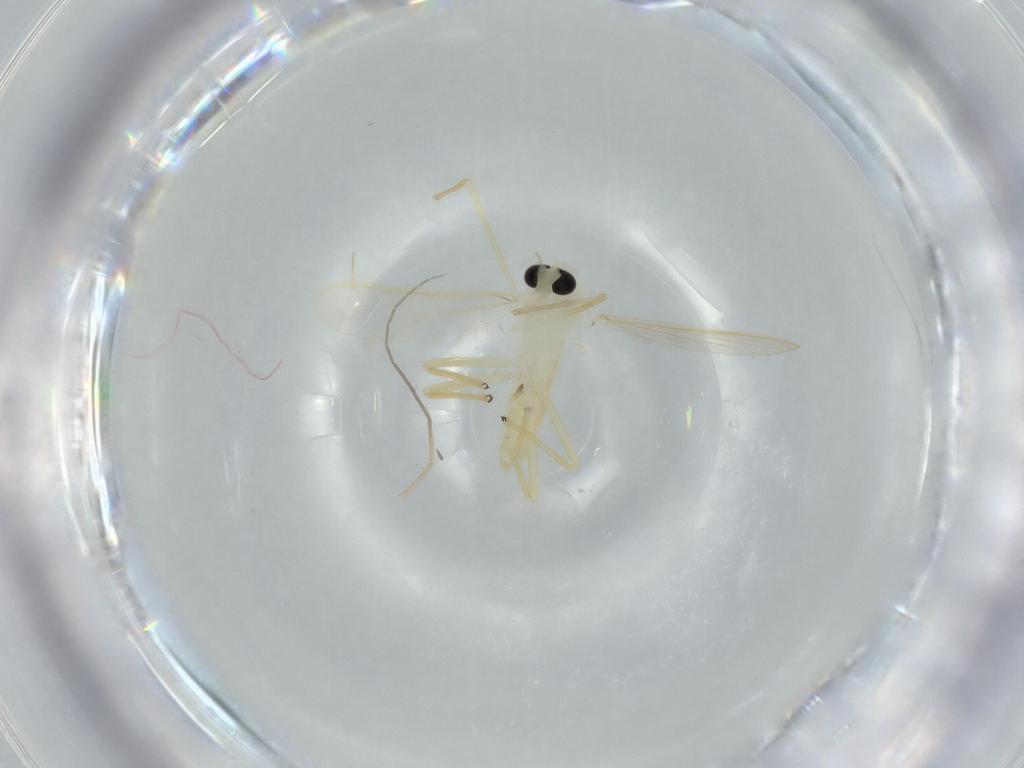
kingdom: Animalia
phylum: Arthropoda
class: Insecta
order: Diptera
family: Chironomidae
